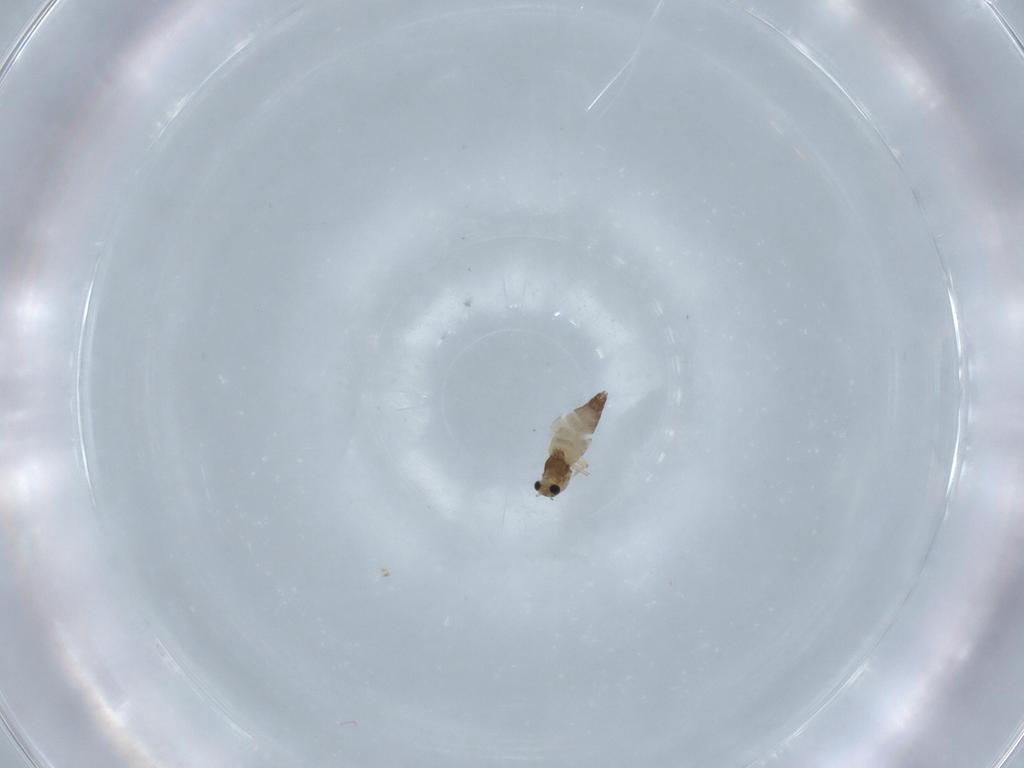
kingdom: Animalia
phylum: Arthropoda
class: Insecta
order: Diptera
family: Chironomidae
